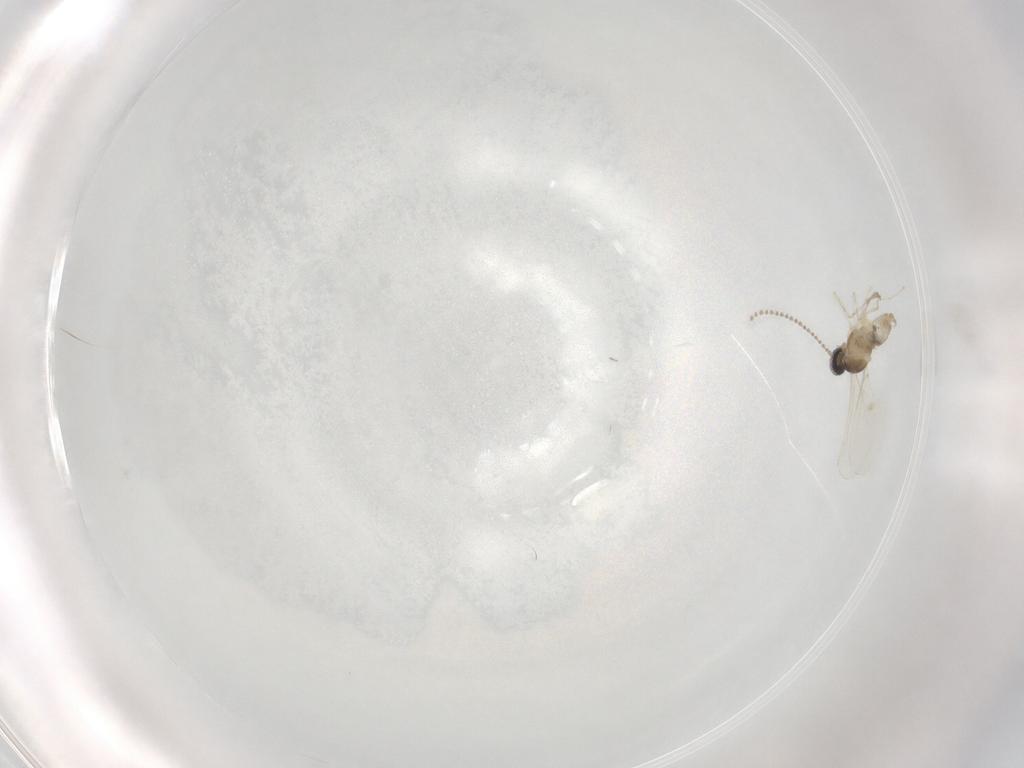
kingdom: Animalia
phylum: Arthropoda
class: Insecta
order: Diptera
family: Cecidomyiidae
